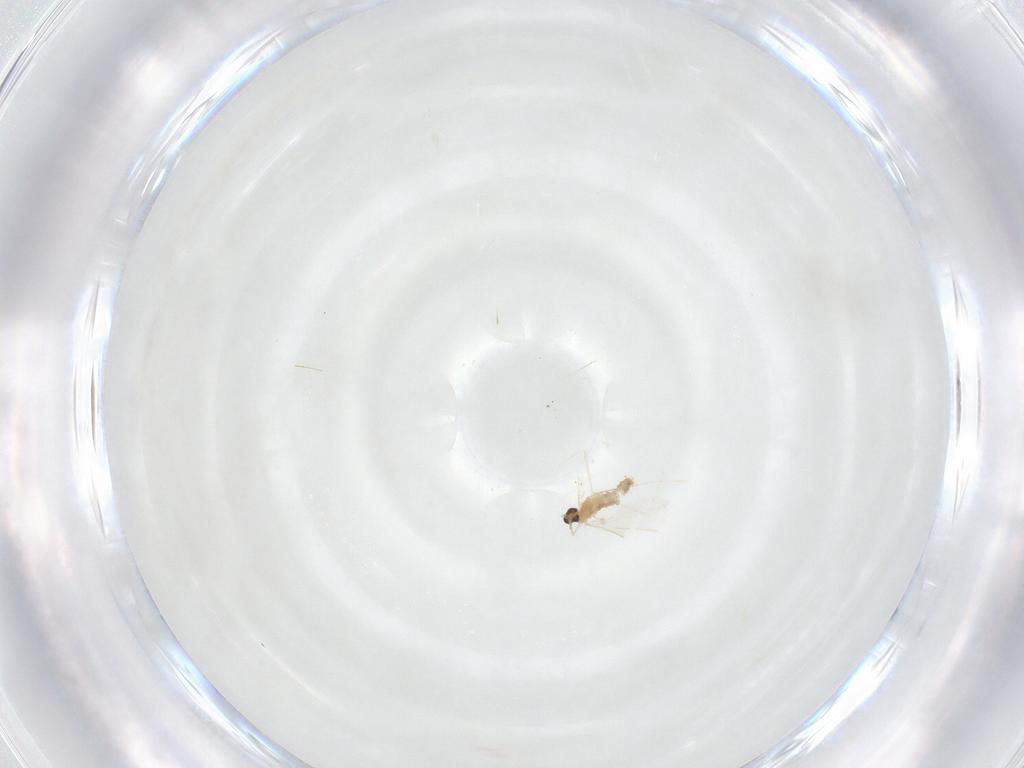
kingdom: Animalia
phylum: Arthropoda
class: Insecta
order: Diptera
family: Cecidomyiidae
